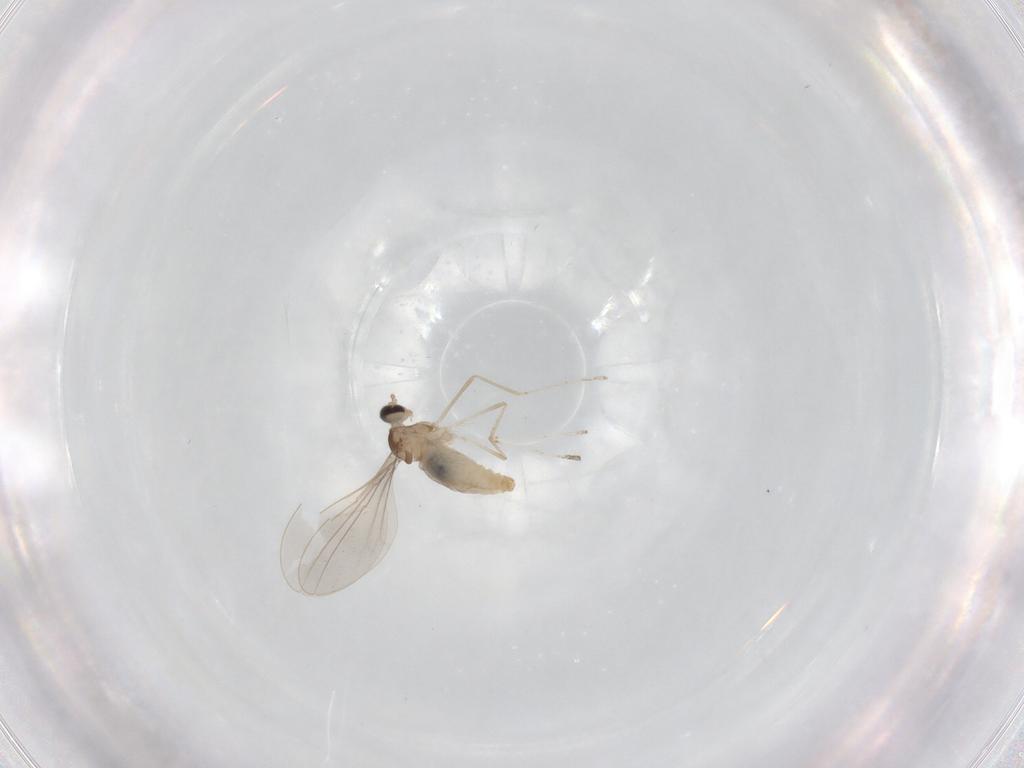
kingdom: Animalia
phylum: Arthropoda
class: Insecta
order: Diptera
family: Cecidomyiidae
